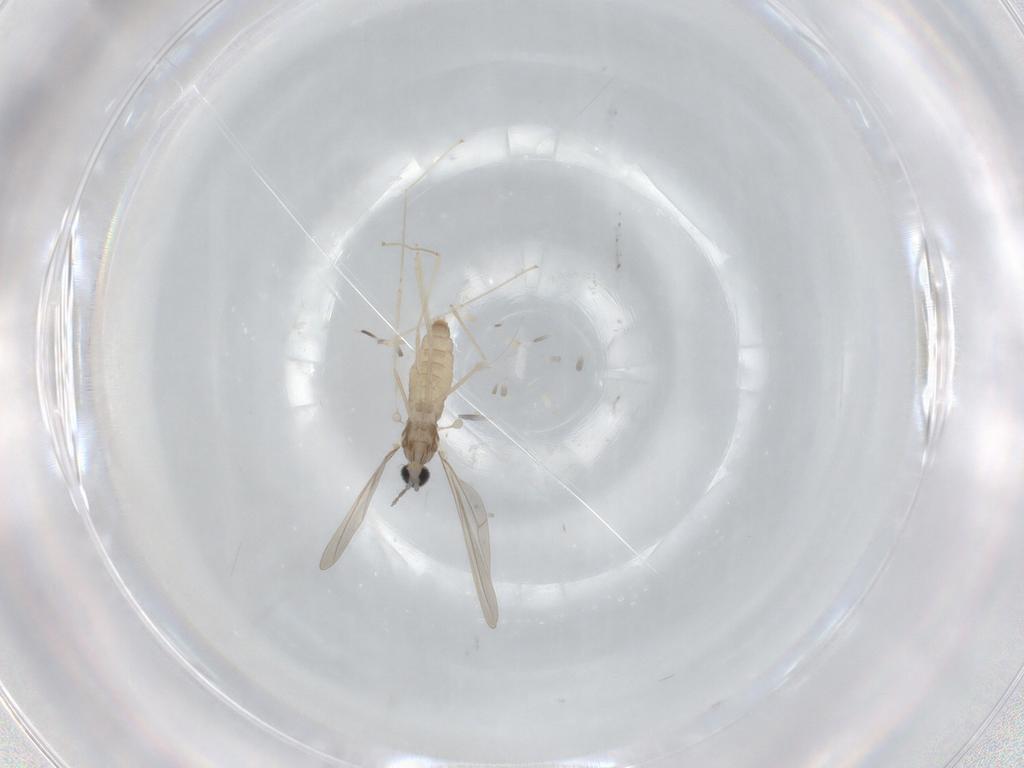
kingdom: Animalia
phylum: Arthropoda
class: Insecta
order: Diptera
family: Cecidomyiidae
